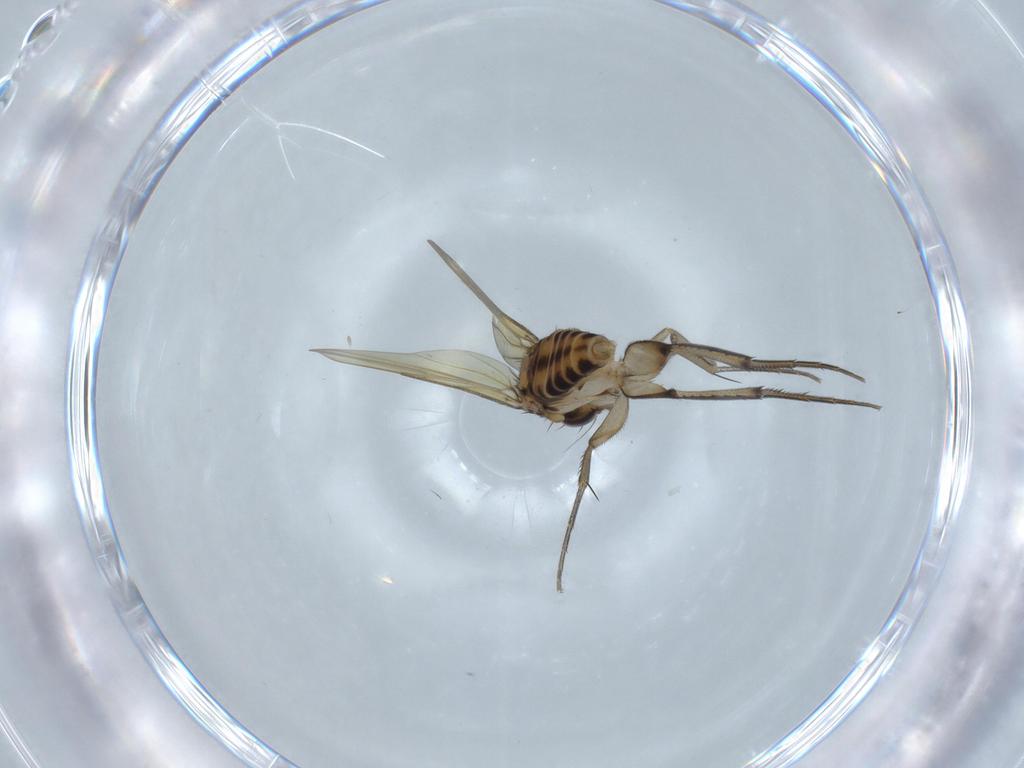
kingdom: Animalia
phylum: Arthropoda
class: Insecta
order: Diptera
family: Phoridae
